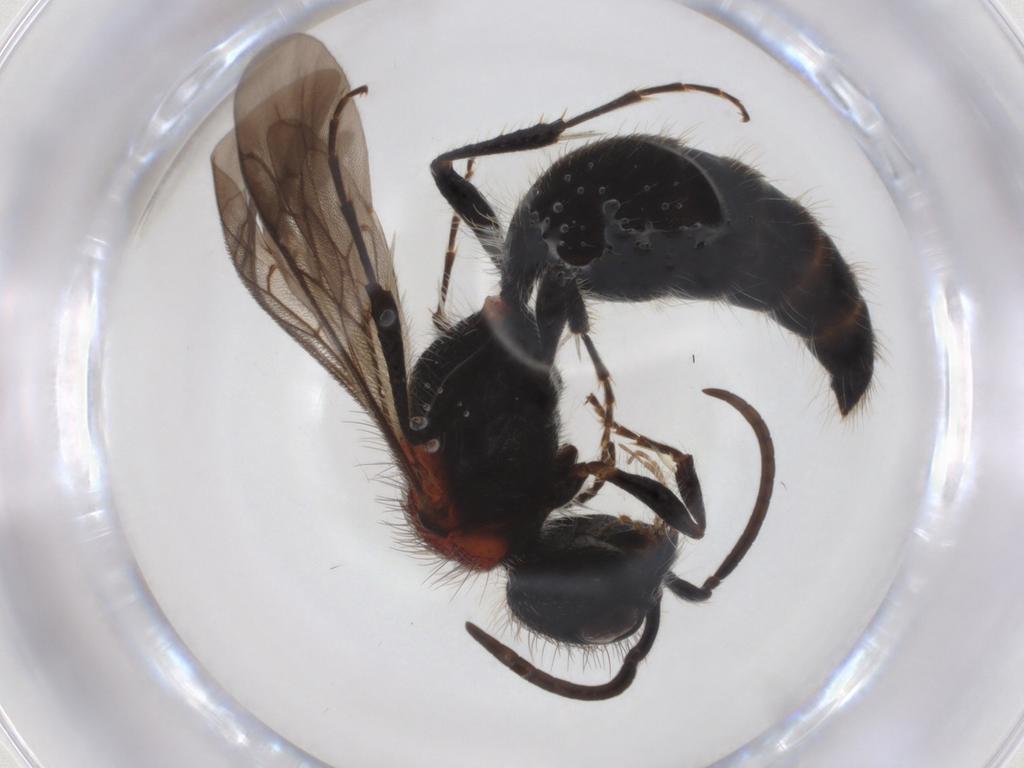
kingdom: Animalia
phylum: Arthropoda
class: Insecta
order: Hymenoptera
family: Mutillidae
